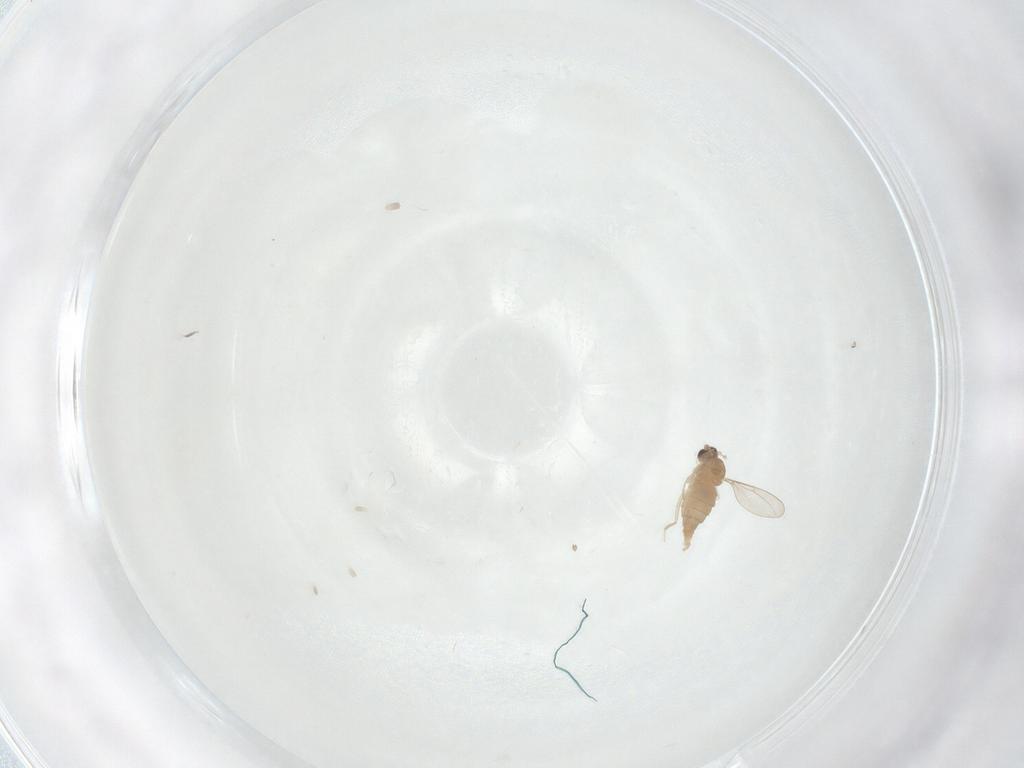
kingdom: Animalia
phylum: Arthropoda
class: Insecta
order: Diptera
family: Cecidomyiidae
